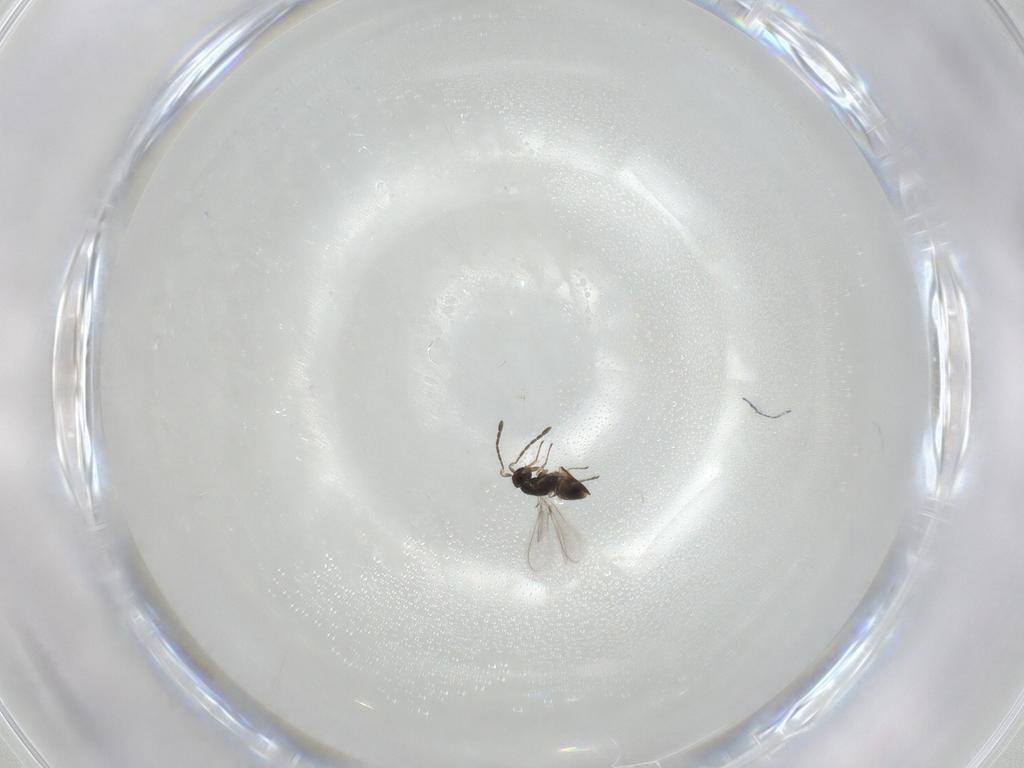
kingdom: Animalia
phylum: Arthropoda
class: Insecta
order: Hymenoptera
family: Mymaridae
